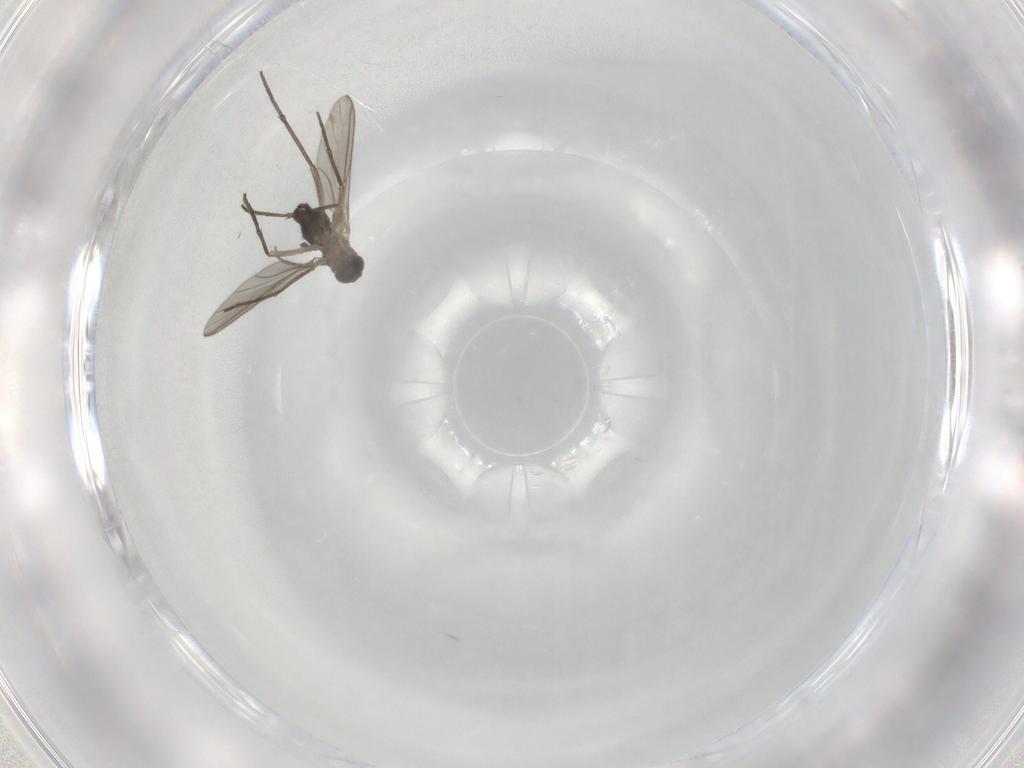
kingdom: Animalia
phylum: Arthropoda
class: Insecta
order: Diptera
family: Ceratopogonidae
